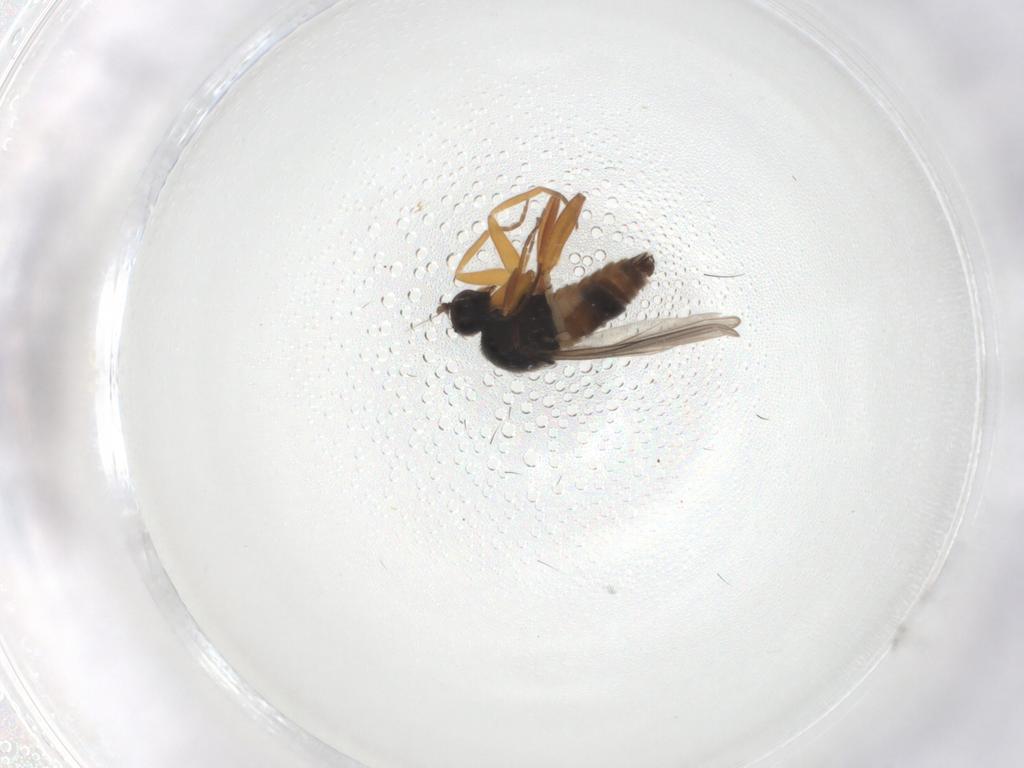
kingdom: Animalia
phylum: Arthropoda
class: Insecta
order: Diptera
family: Hybotidae
